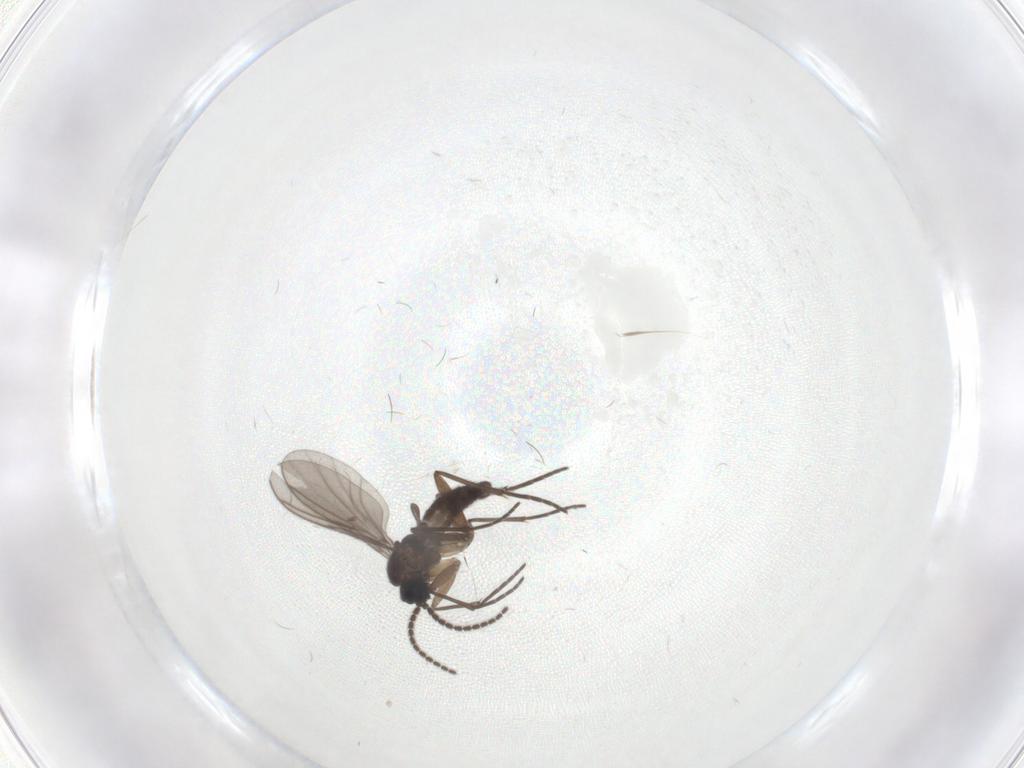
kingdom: Animalia
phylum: Arthropoda
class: Insecta
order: Diptera
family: Sciaridae
